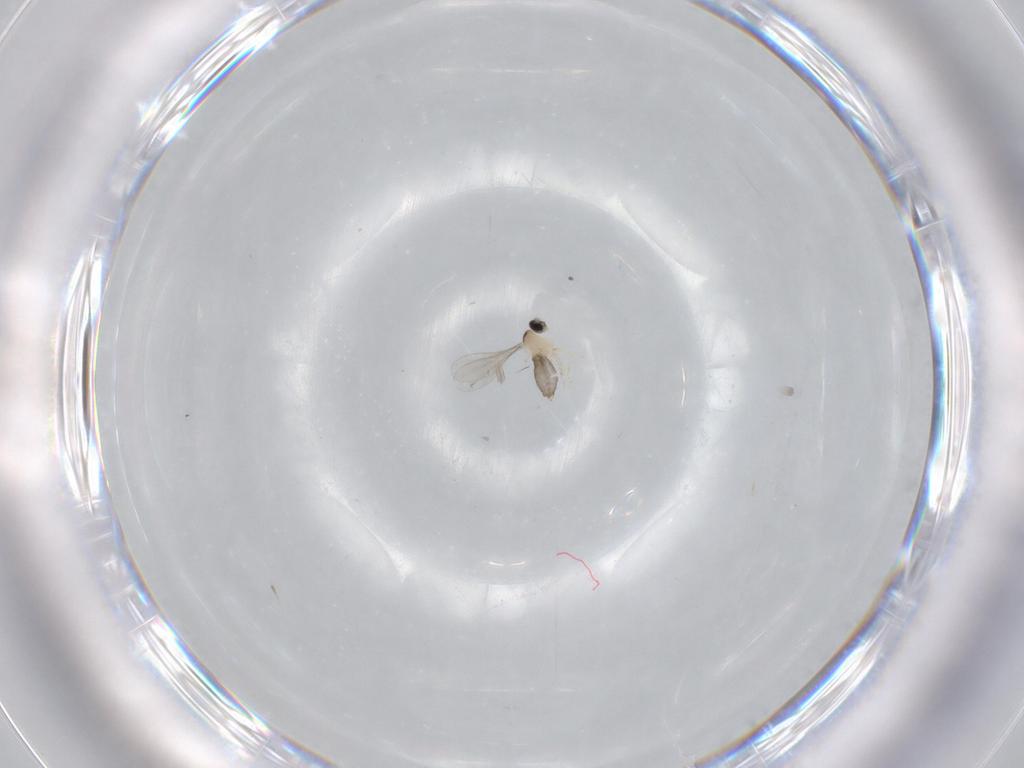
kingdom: Animalia
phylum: Arthropoda
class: Insecta
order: Diptera
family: Cecidomyiidae
